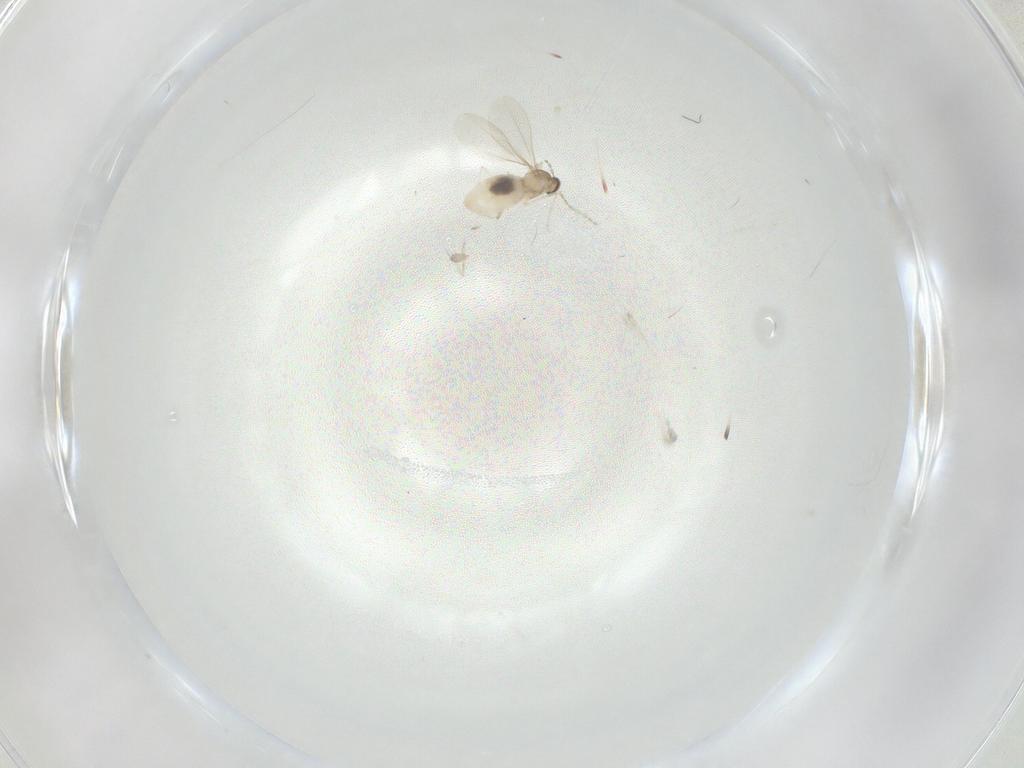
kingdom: Animalia
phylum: Arthropoda
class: Insecta
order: Diptera
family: Cecidomyiidae
